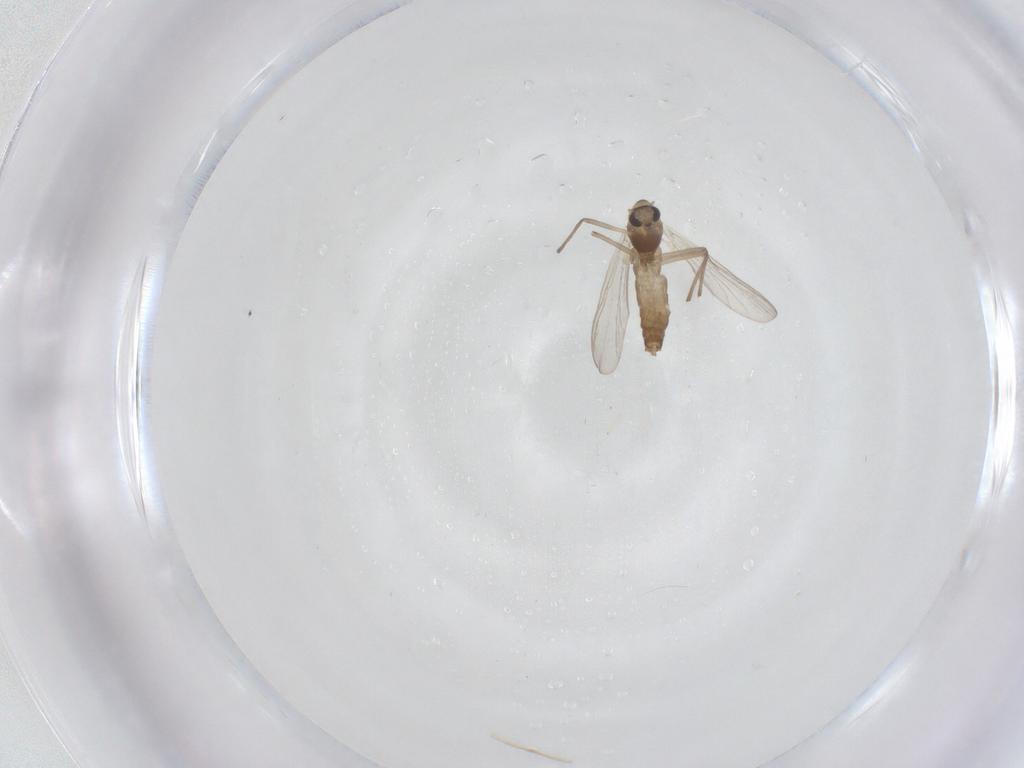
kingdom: Animalia
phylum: Arthropoda
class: Insecta
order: Diptera
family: Chironomidae
